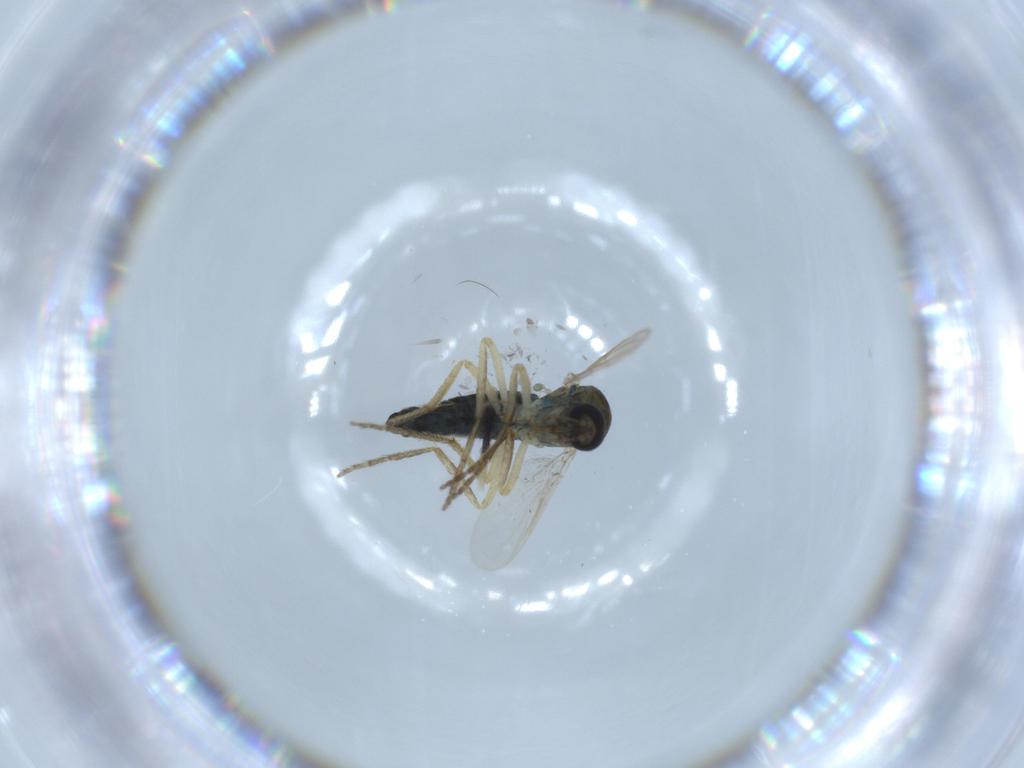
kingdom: Animalia
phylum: Arthropoda
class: Insecta
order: Diptera
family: Ceratopogonidae
